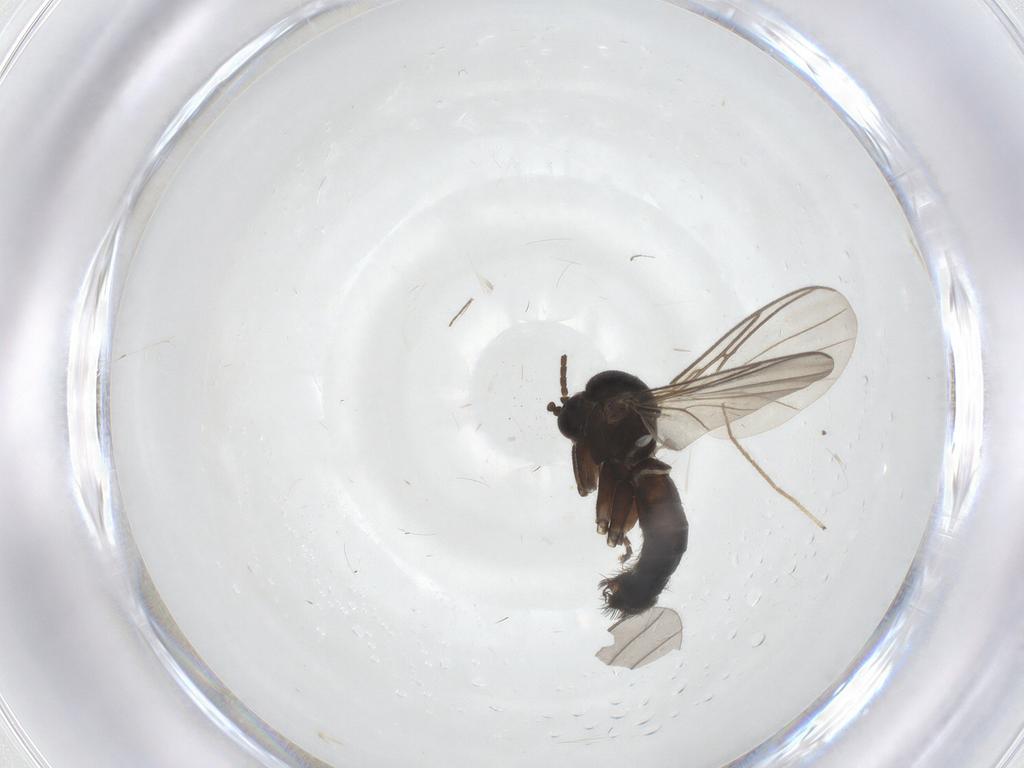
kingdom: Animalia
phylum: Arthropoda
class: Insecta
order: Diptera
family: Mycetophilidae
